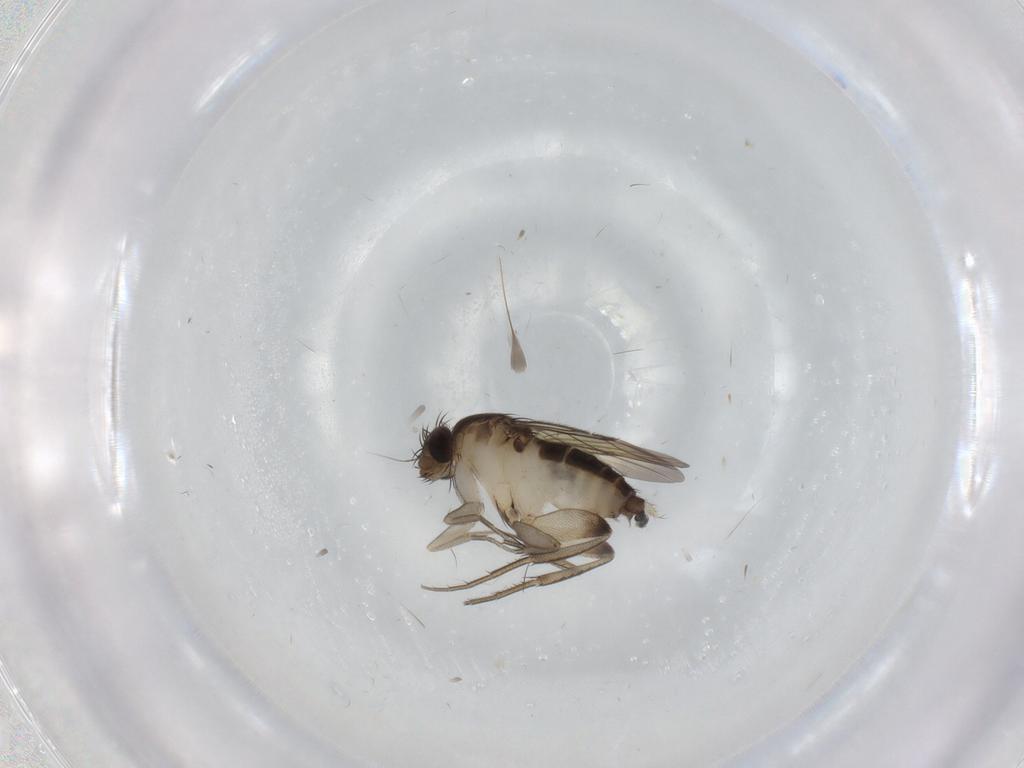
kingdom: Animalia
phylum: Arthropoda
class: Insecta
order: Diptera
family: Phoridae
